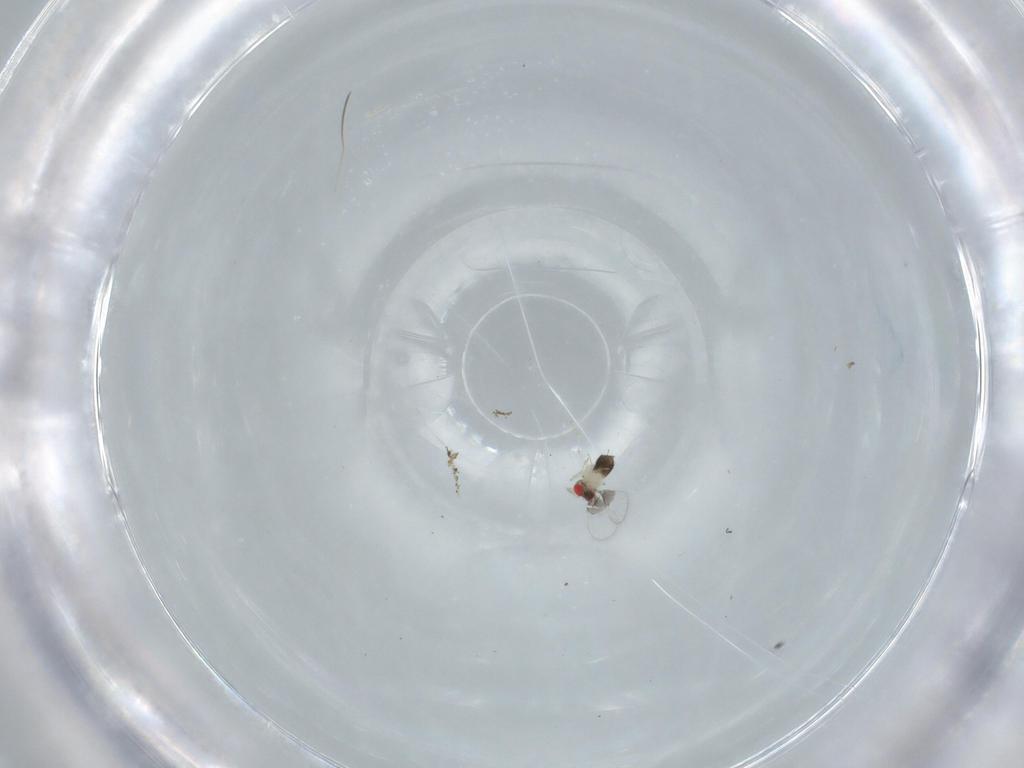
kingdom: Animalia
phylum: Arthropoda
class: Insecta
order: Hymenoptera
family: Trichogrammatidae
